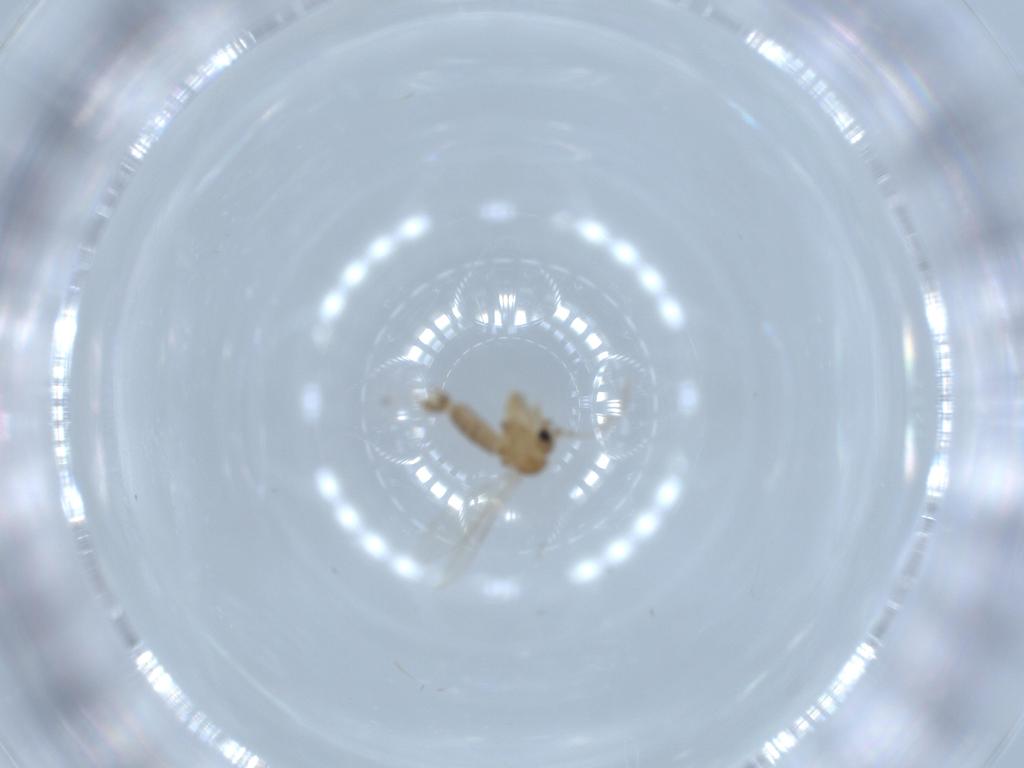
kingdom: Animalia
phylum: Arthropoda
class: Insecta
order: Diptera
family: Psychodidae
